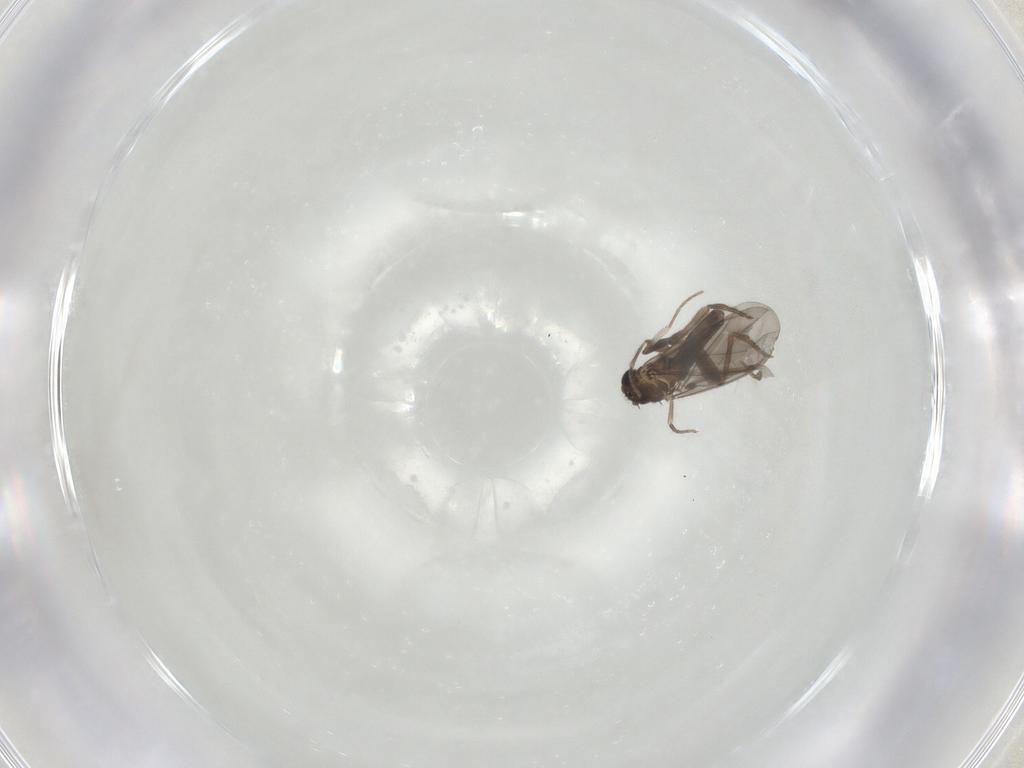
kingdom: Animalia
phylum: Arthropoda
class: Insecta
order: Diptera
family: Phoridae
